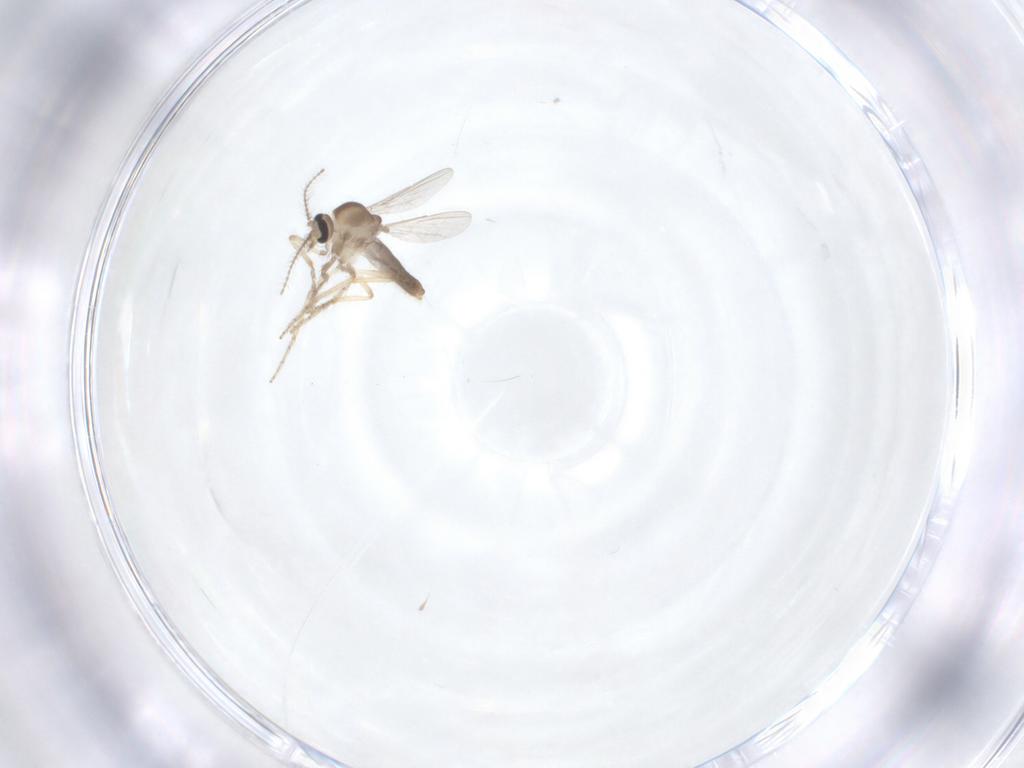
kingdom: Animalia
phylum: Arthropoda
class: Insecta
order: Diptera
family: Ceratopogonidae
